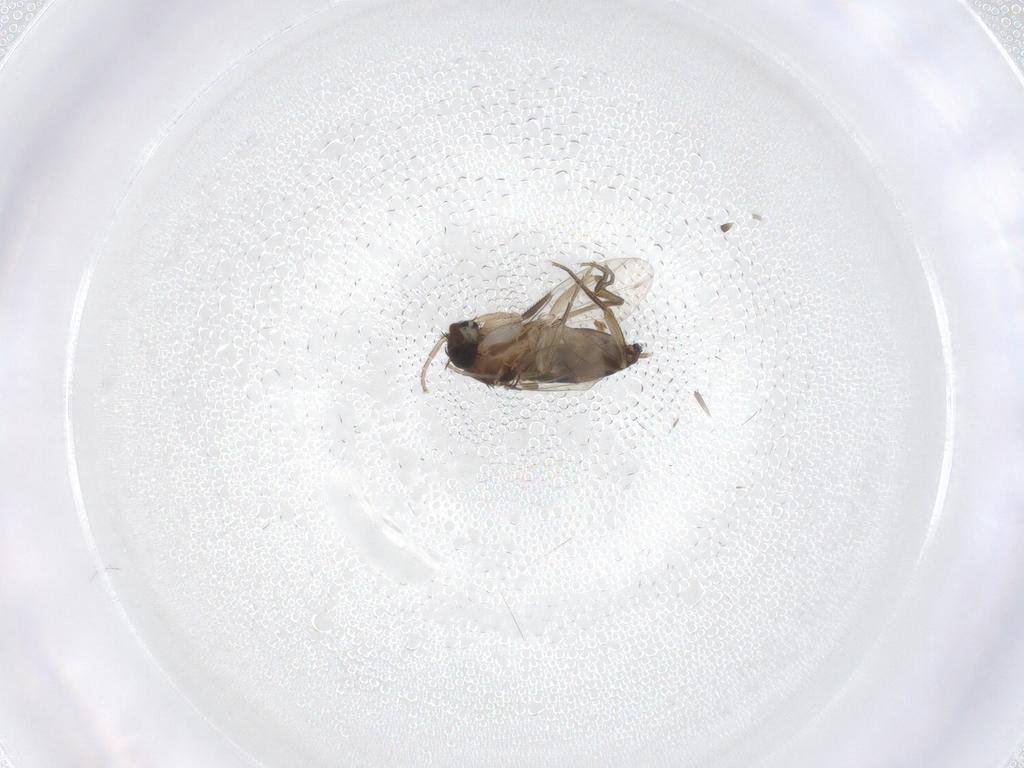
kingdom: Animalia
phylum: Arthropoda
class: Insecta
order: Diptera
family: Phoridae
